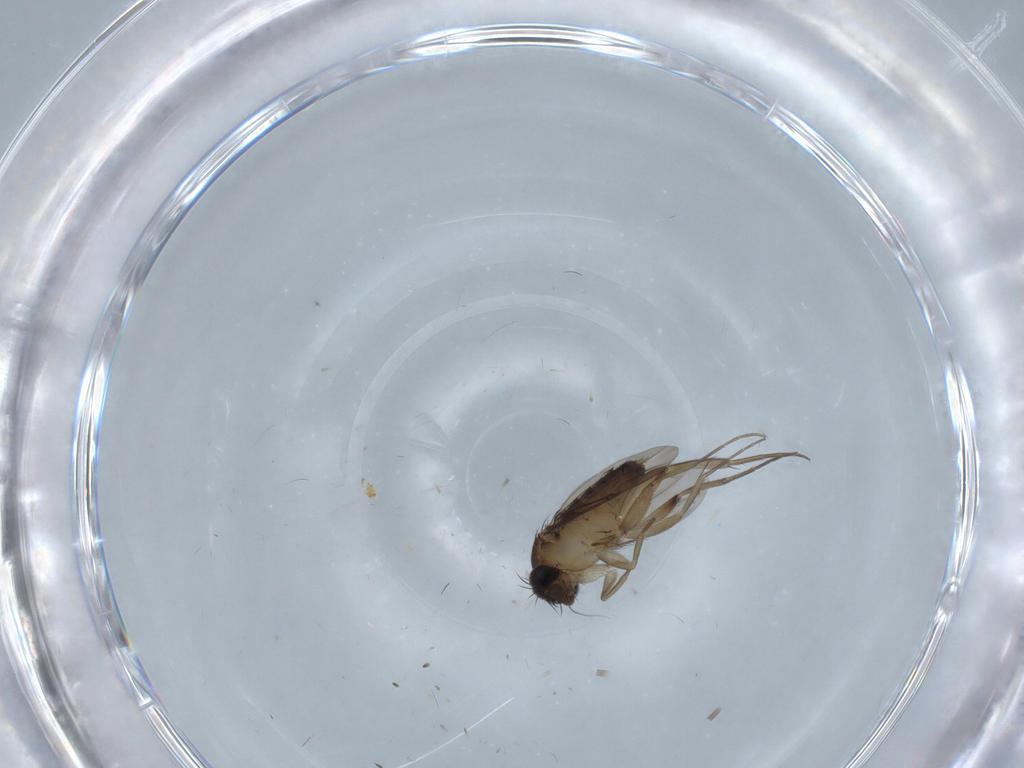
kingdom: Animalia
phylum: Arthropoda
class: Insecta
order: Diptera
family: Phoridae
